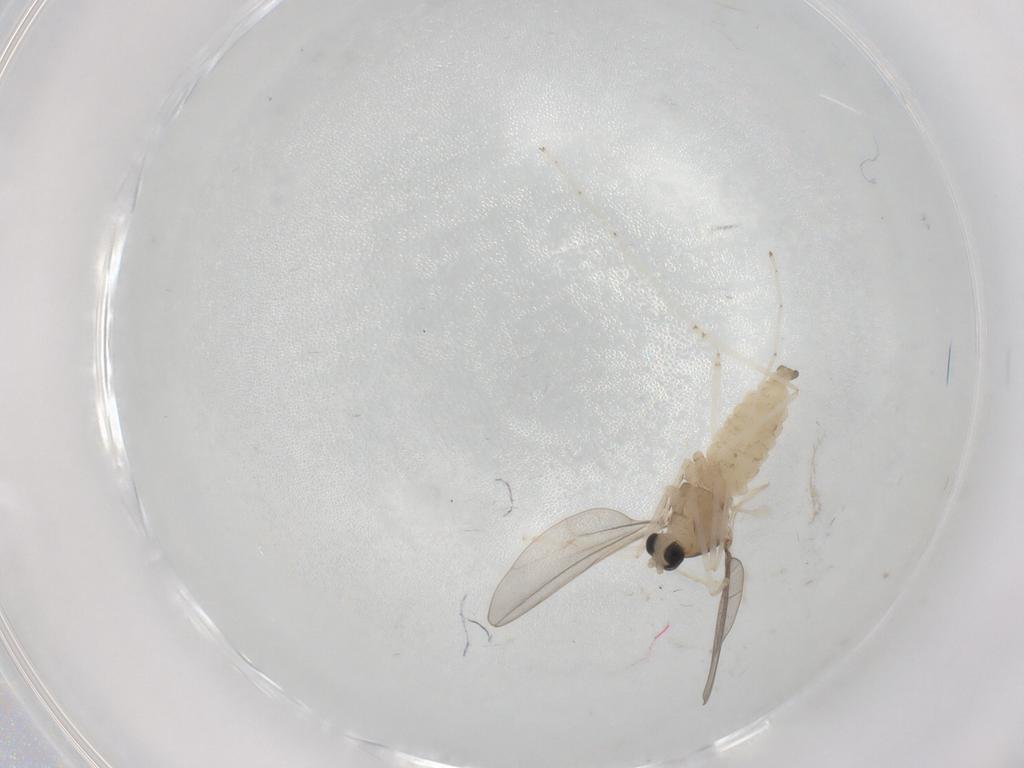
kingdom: Animalia
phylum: Arthropoda
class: Insecta
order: Diptera
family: Cecidomyiidae
